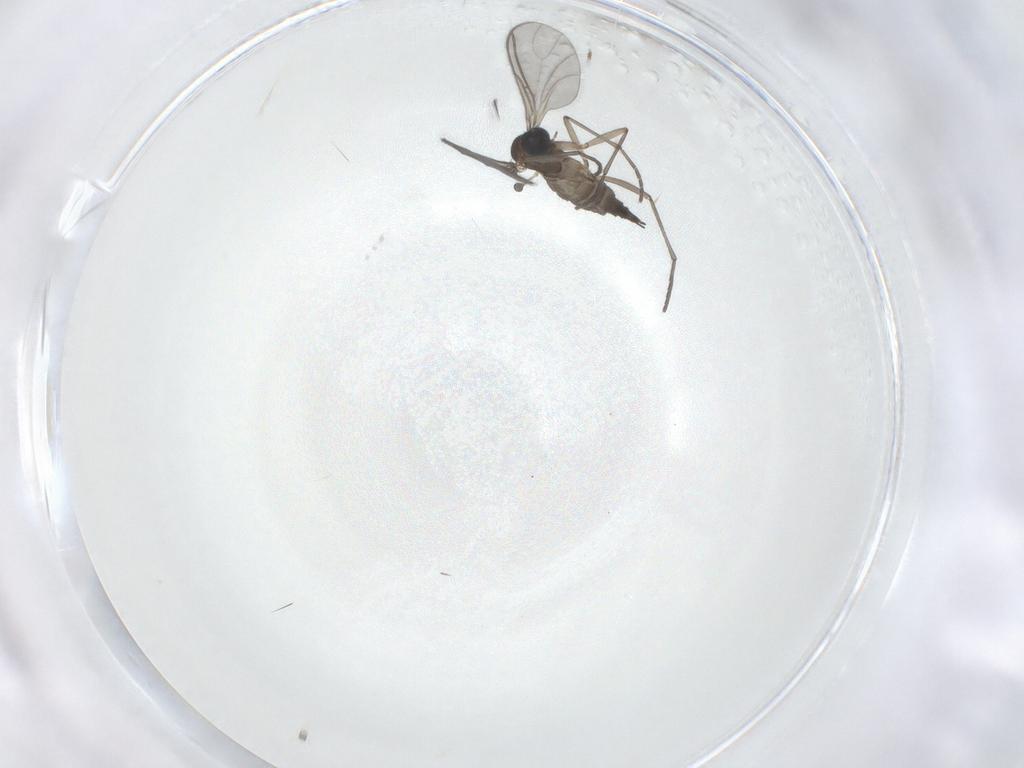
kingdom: Animalia
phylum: Arthropoda
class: Insecta
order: Diptera
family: Sciaridae
